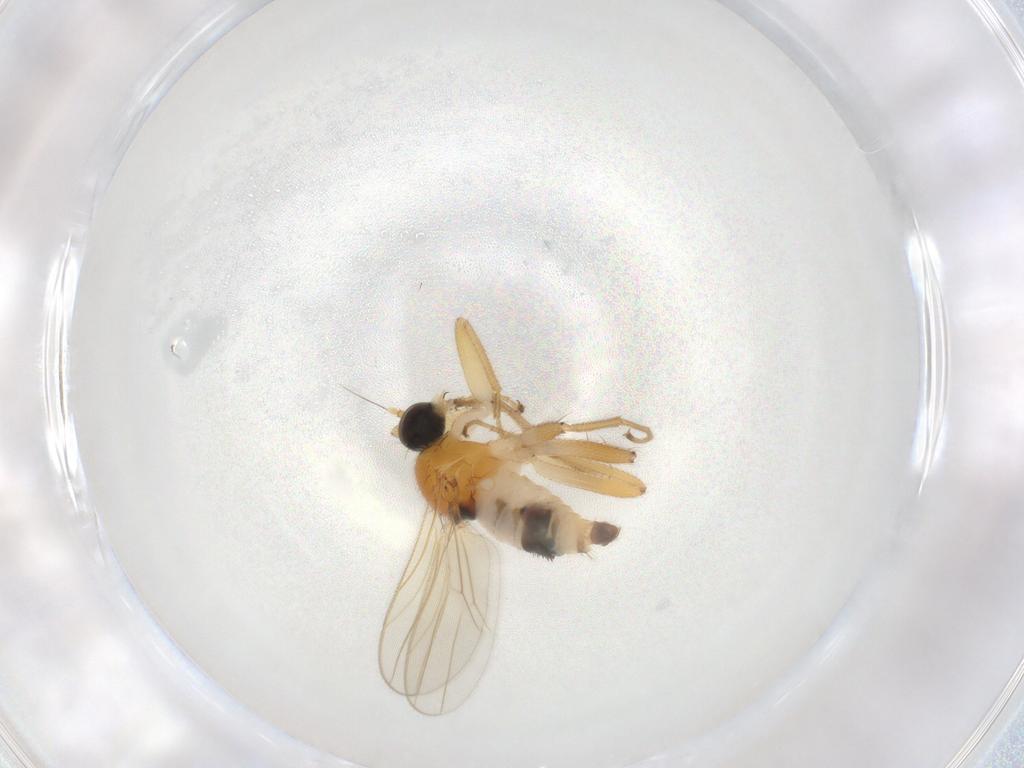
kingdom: Animalia
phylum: Arthropoda
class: Insecta
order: Diptera
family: Hybotidae
